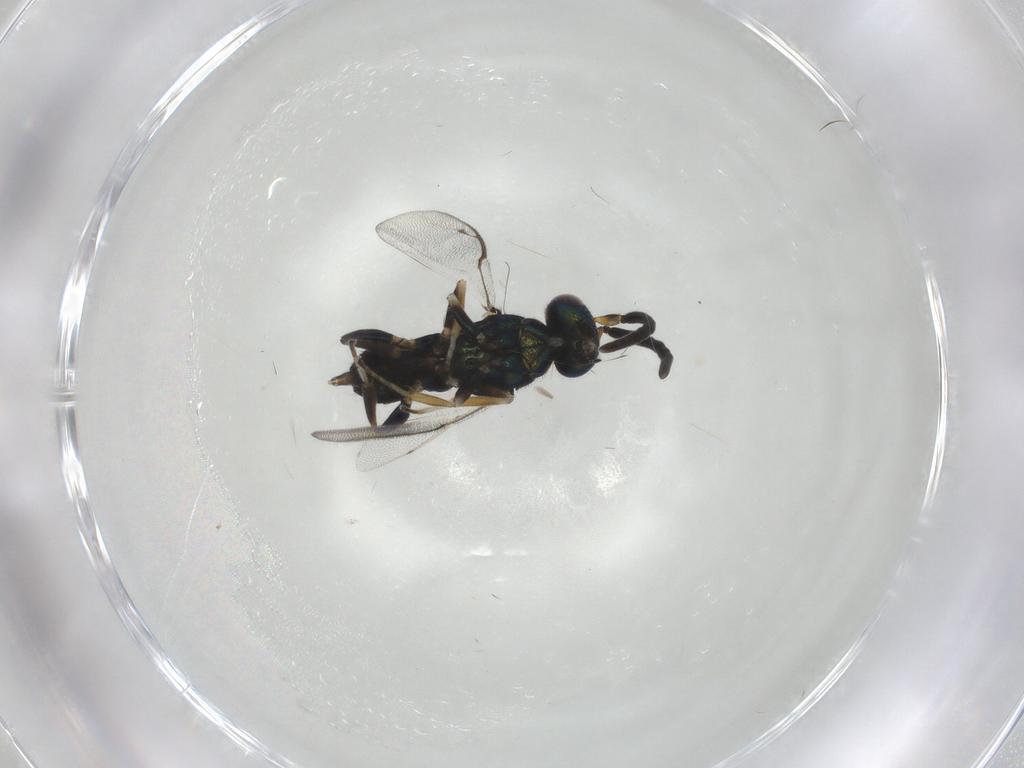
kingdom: Animalia
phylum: Arthropoda
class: Insecta
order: Hymenoptera
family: Eupelmidae
